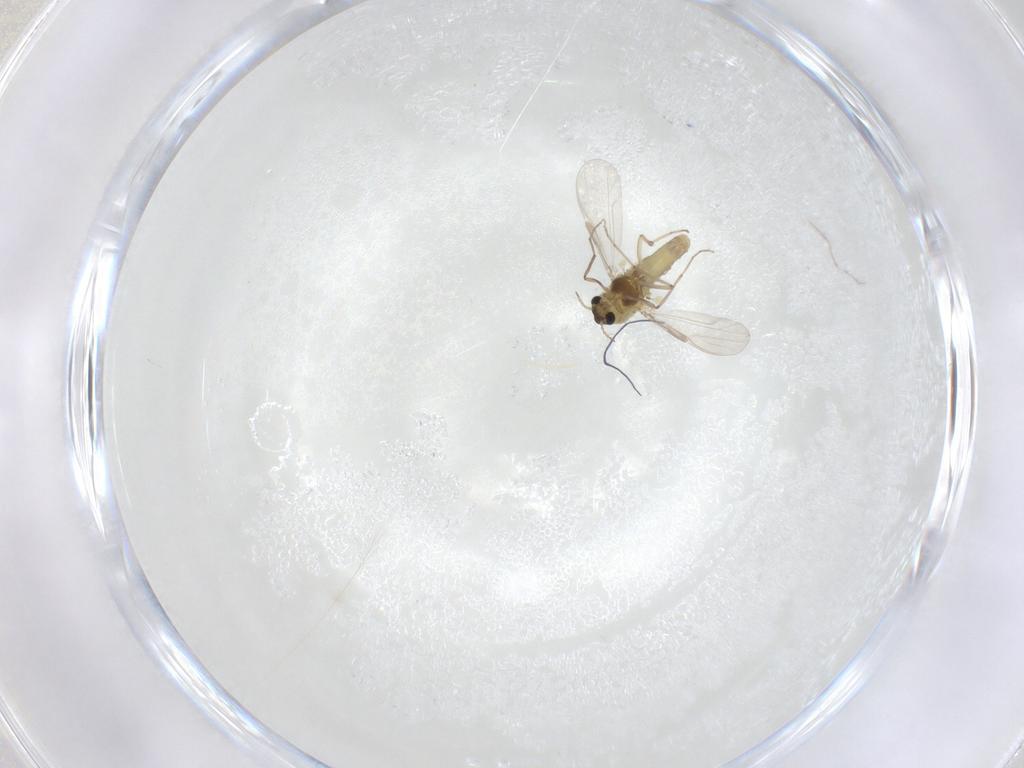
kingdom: Animalia
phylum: Arthropoda
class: Insecta
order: Diptera
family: Chironomidae
